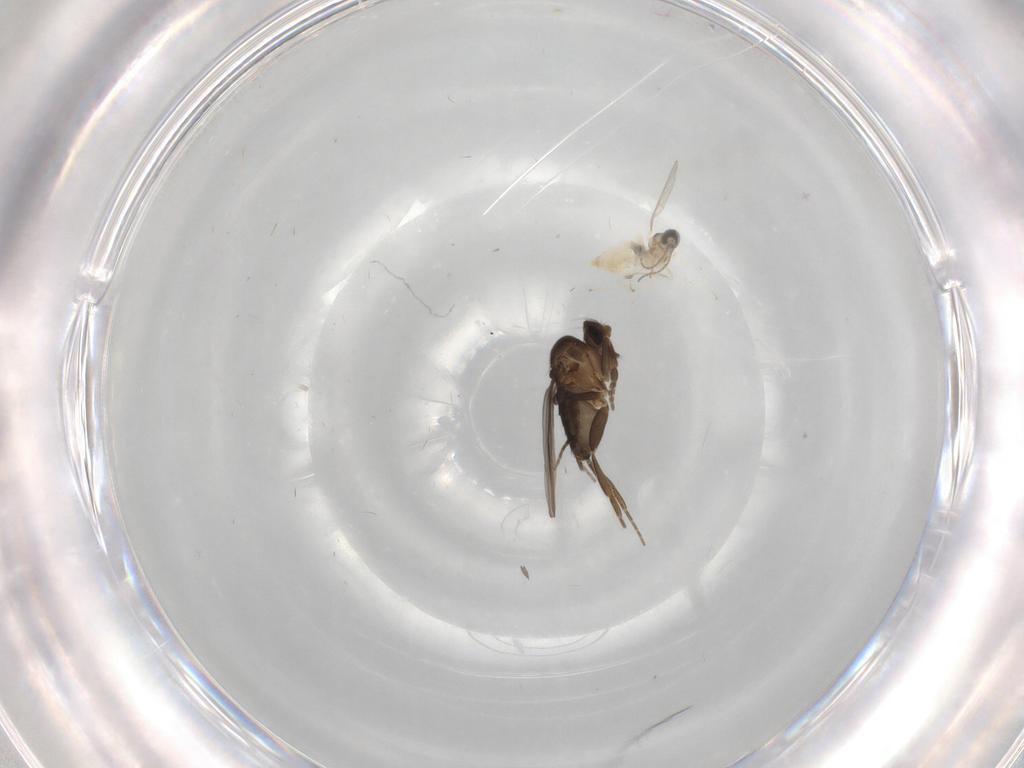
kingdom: Animalia
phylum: Arthropoda
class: Insecta
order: Diptera
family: Phoridae
